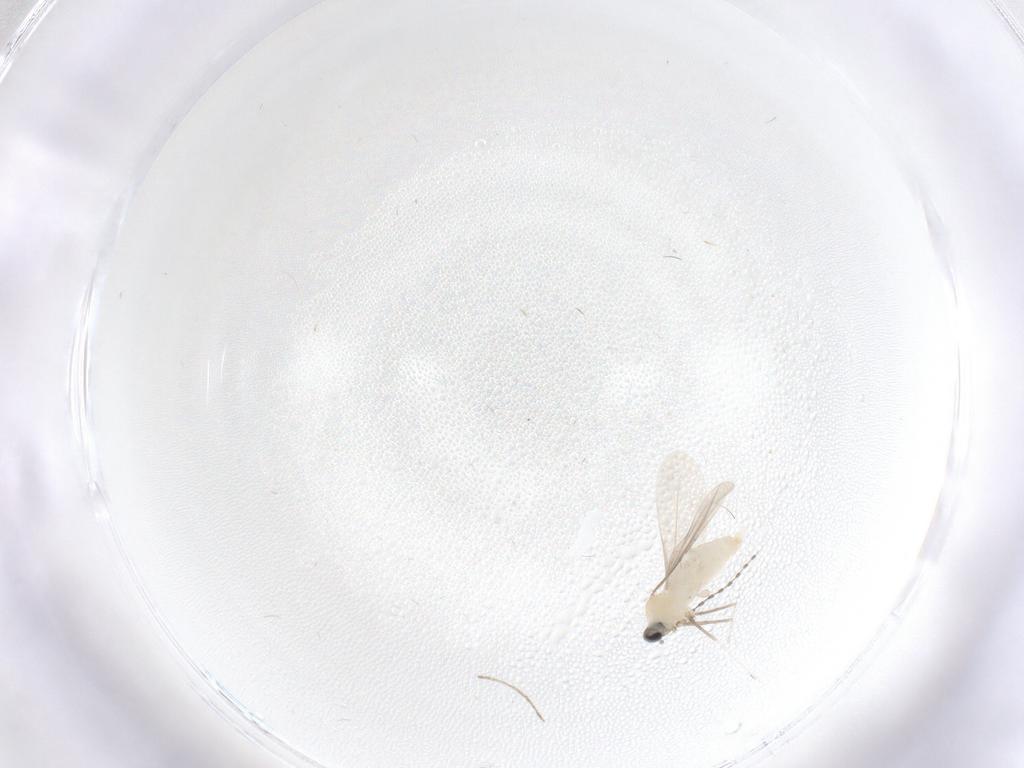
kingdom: Animalia
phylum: Arthropoda
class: Insecta
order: Diptera
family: Cecidomyiidae
